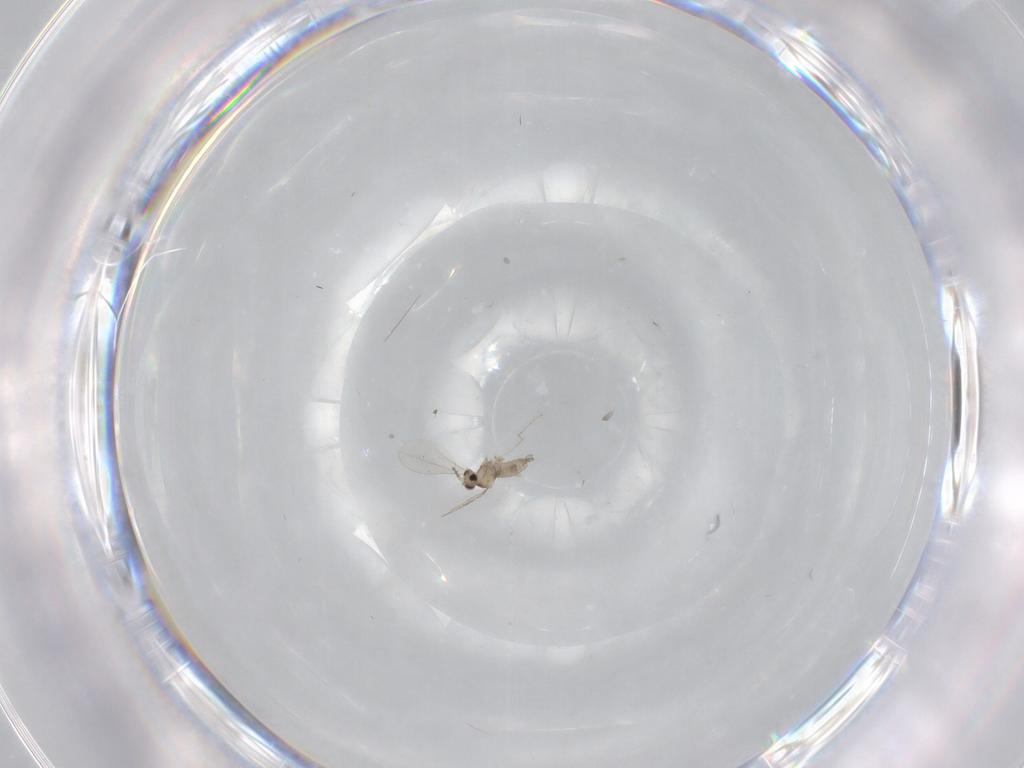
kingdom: Animalia
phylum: Arthropoda
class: Insecta
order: Diptera
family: Cecidomyiidae
